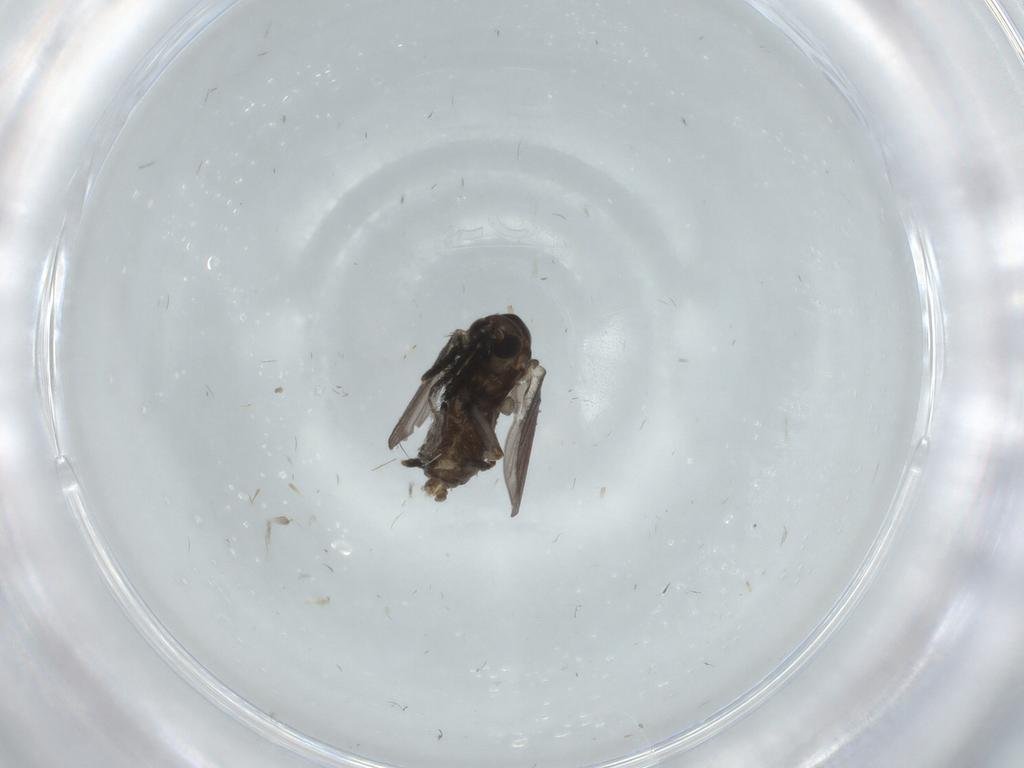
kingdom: Animalia
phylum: Arthropoda
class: Insecta
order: Diptera
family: Psychodidae
